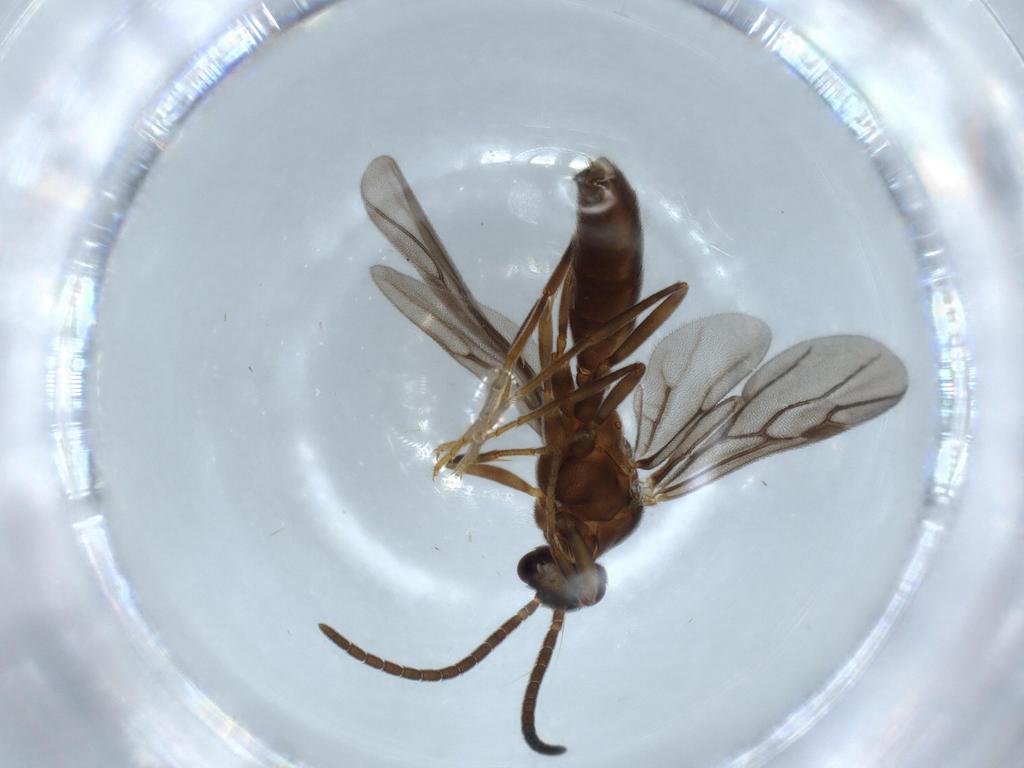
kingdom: Animalia
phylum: Arthropoda
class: Insecta
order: Hymenoptera
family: Formicidae
